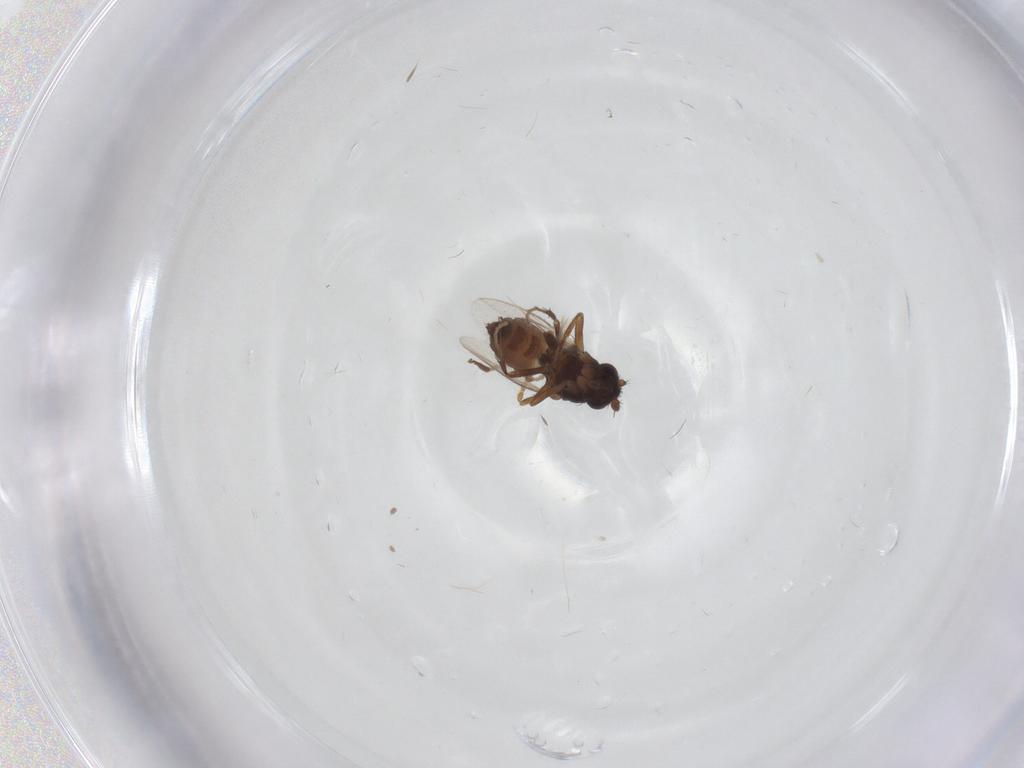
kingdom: Animalia
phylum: Arthropoda
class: Insecta
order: Diptera
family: Sphaeroceridae
